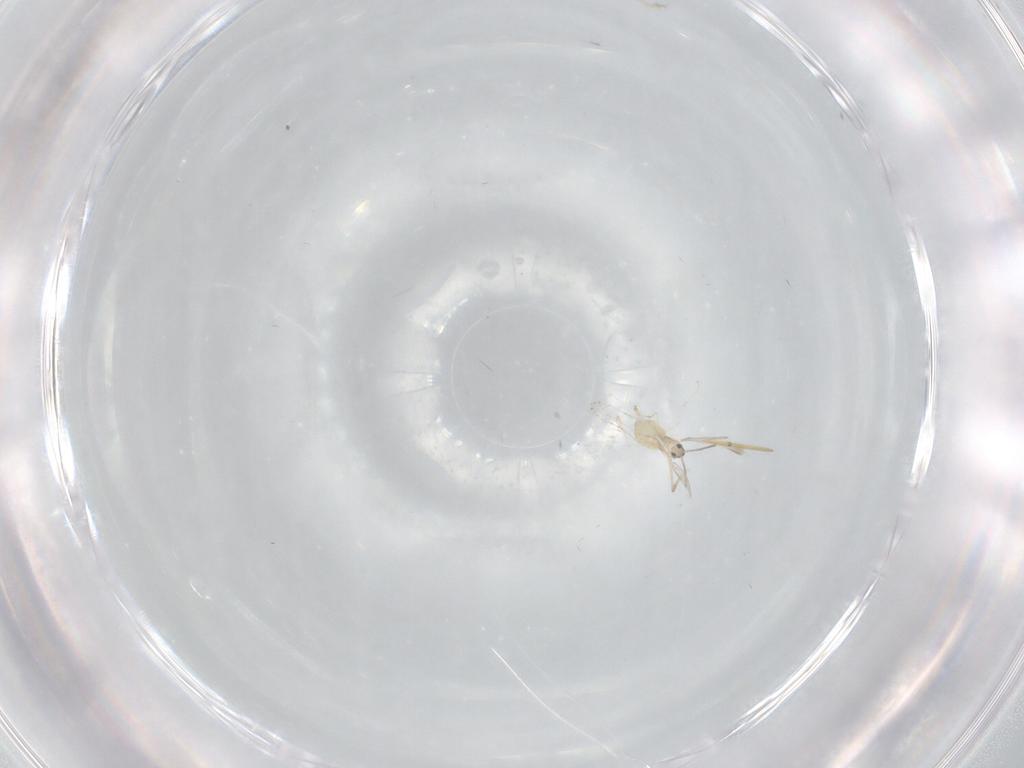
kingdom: Animalia
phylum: Arthropoda
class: Insecta
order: Diptera
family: Cecidomyiidae
